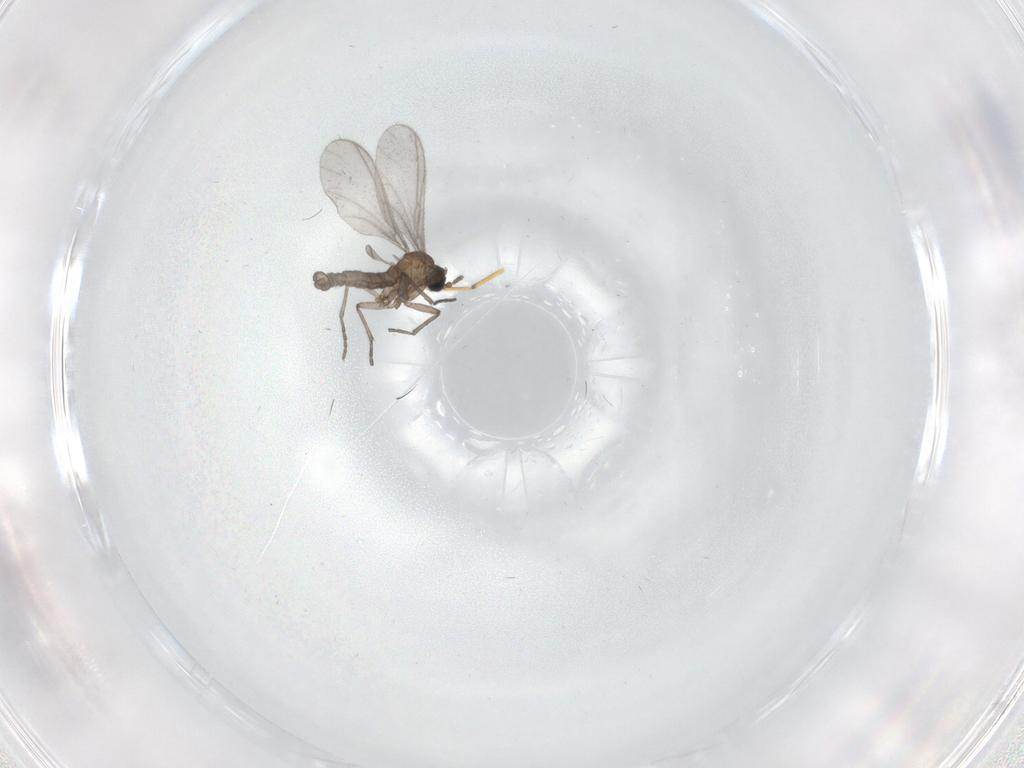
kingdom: Animalia
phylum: Arthropoda
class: Insecta
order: Diptera
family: Sciaridae
